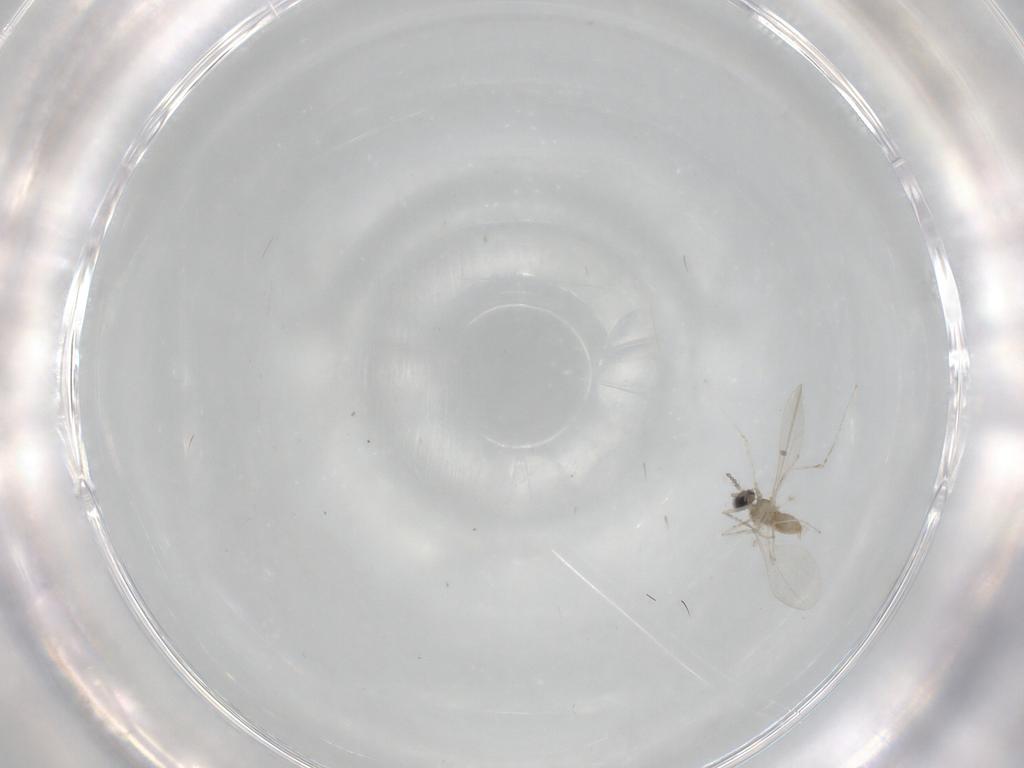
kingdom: Animalia
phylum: Arthropoda
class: Insecta
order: Diptera
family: Cecidomyiidae
